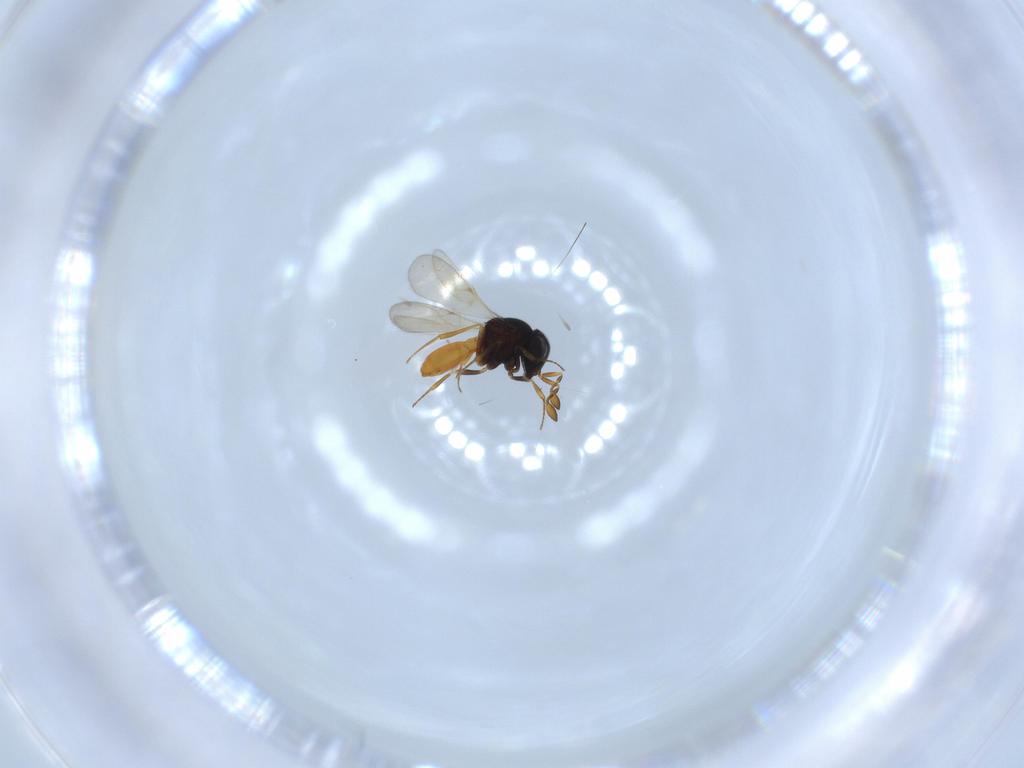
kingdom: Animalia
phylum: Arthropoda
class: Insecta
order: Hymenoptera
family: Scelionidae
